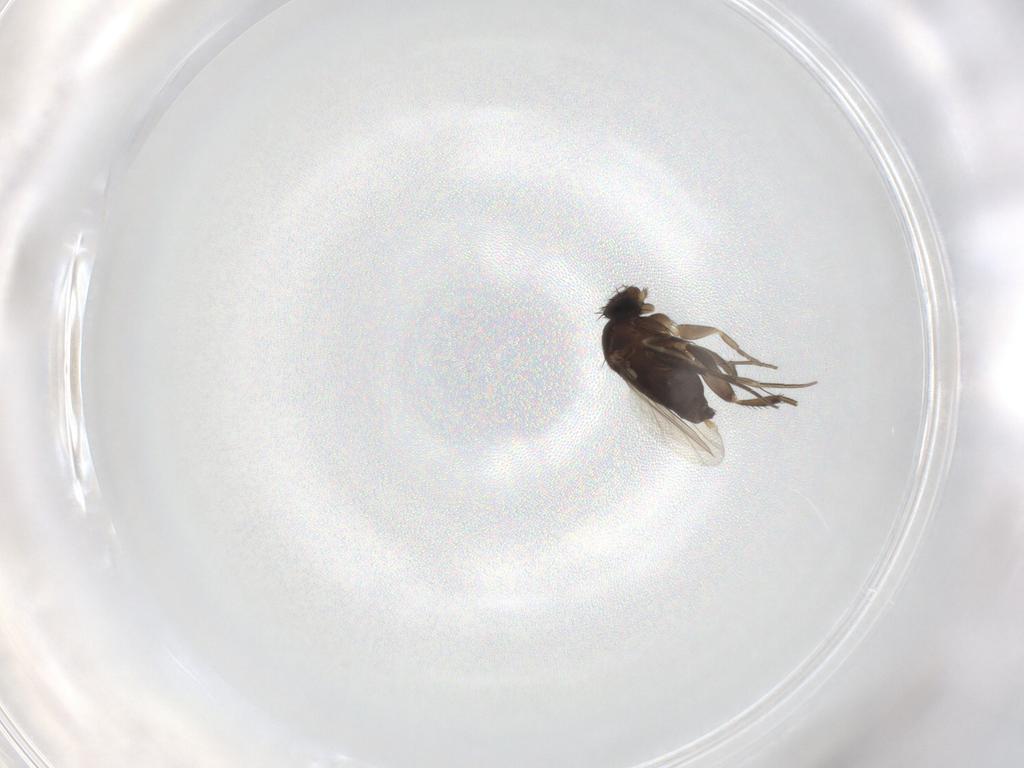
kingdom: Animalia
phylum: Arthropoda
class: Insecta
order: Diptera
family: Phoridae
